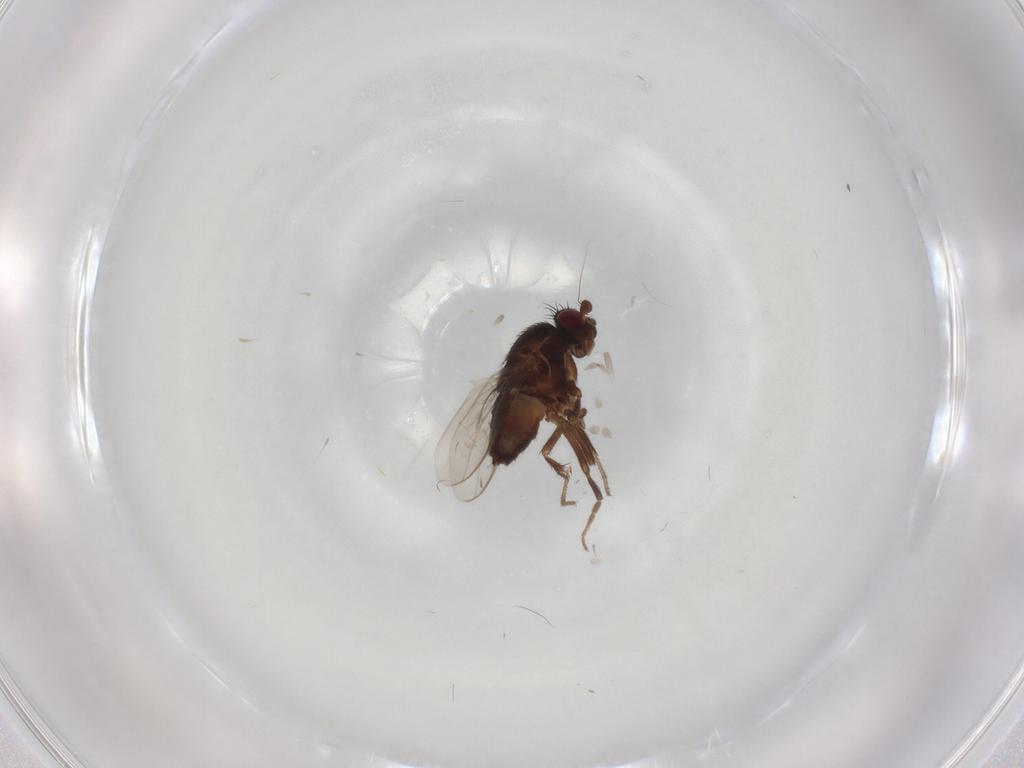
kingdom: Animalia
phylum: Arthropoda
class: Insecta
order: Diptera
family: Sphaeroceridae
